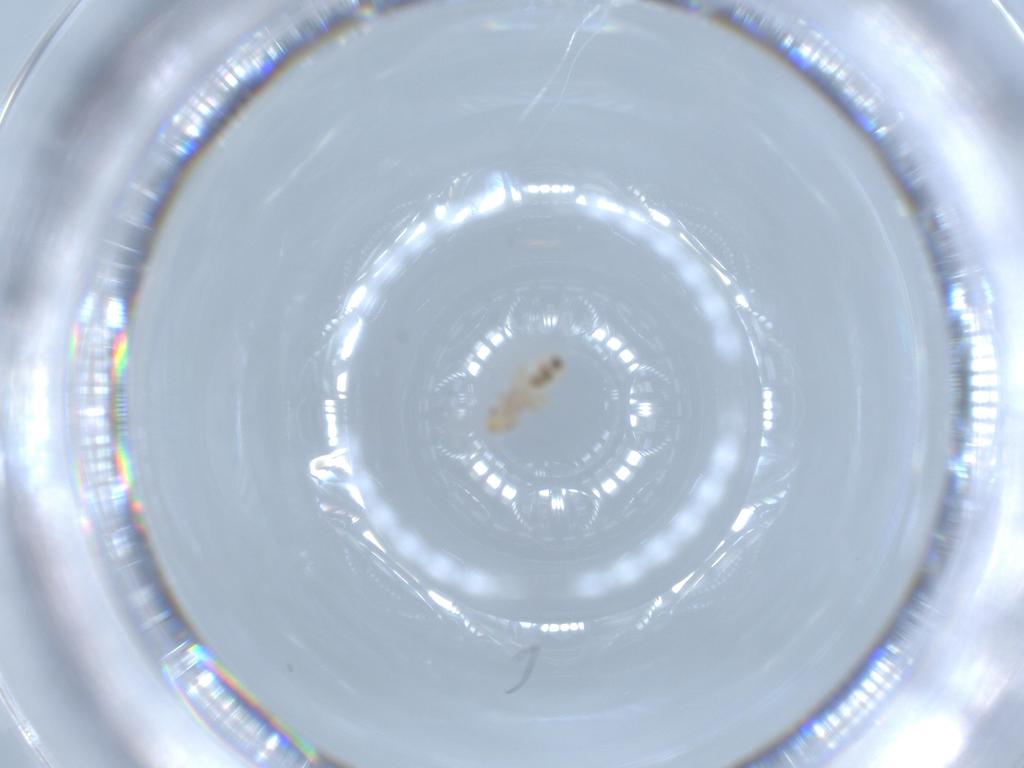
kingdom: Animalia
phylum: Arthropoda
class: Insecta
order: Psocodea
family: Liposcelididae
